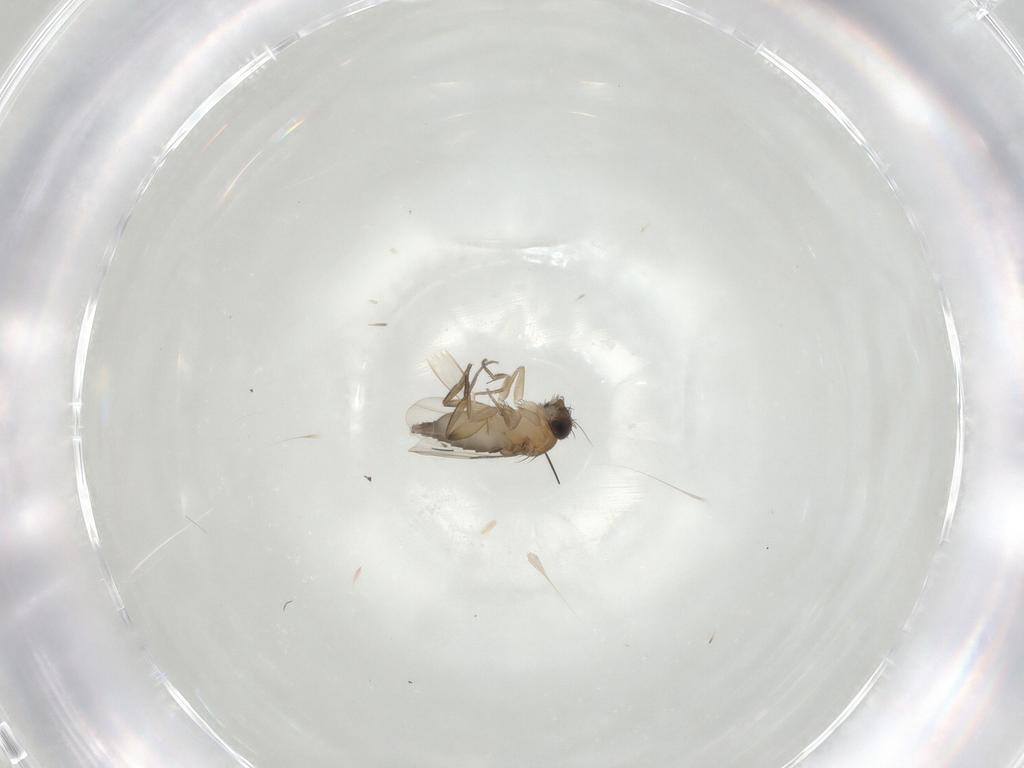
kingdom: Animalia
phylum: Arthropoda
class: Insecta
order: Diptera
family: Phoridae
